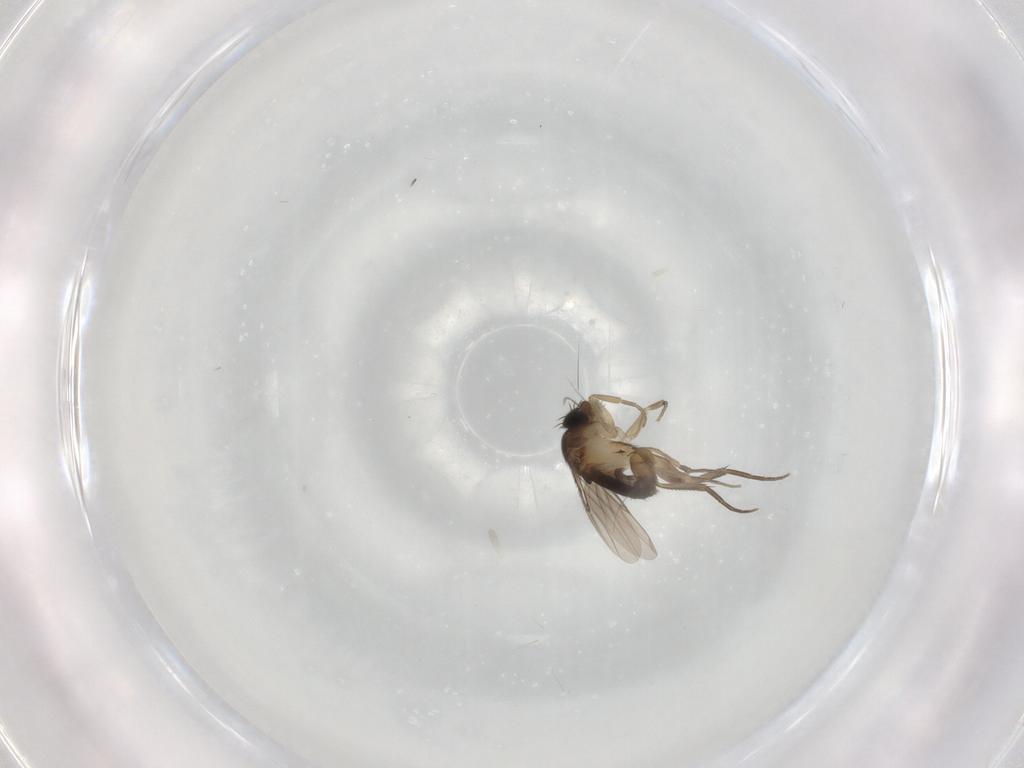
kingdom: Animalia
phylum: Arthropoda
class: Insecta
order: Diptera
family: Phoridae
